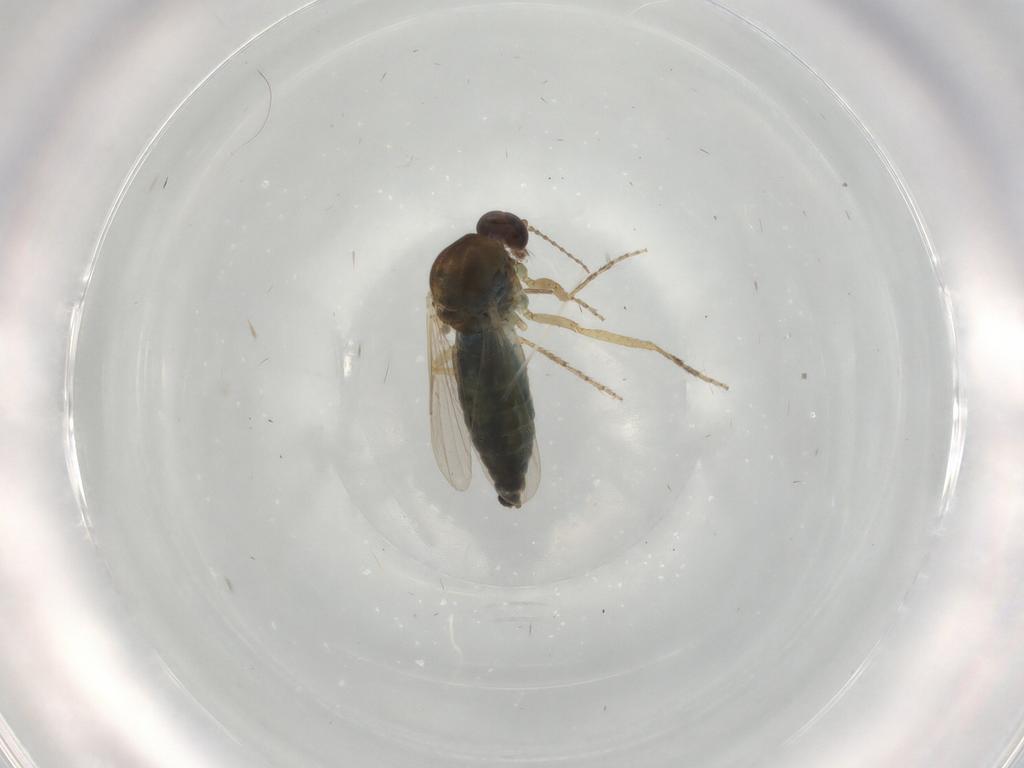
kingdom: Animalia
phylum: Arthropoda
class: Insecta
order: Diptera
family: Ceratopogonidae
